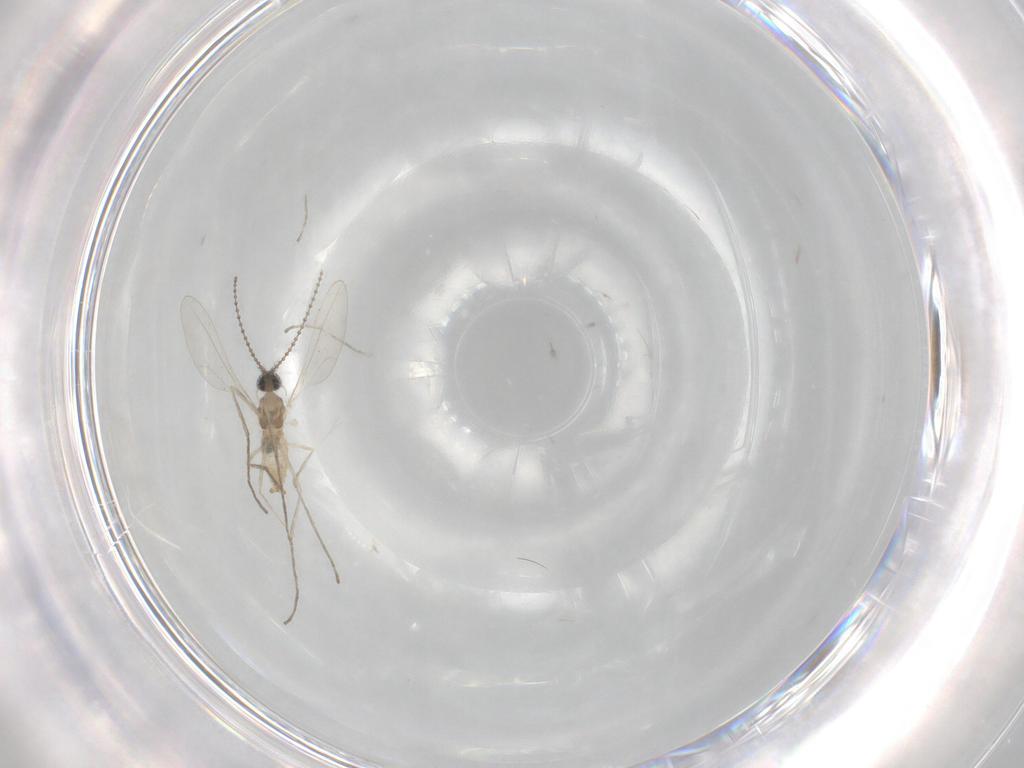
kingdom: Animalia
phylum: Arthropoda
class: Insecta
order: Diptera
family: Cecidomyiidae
